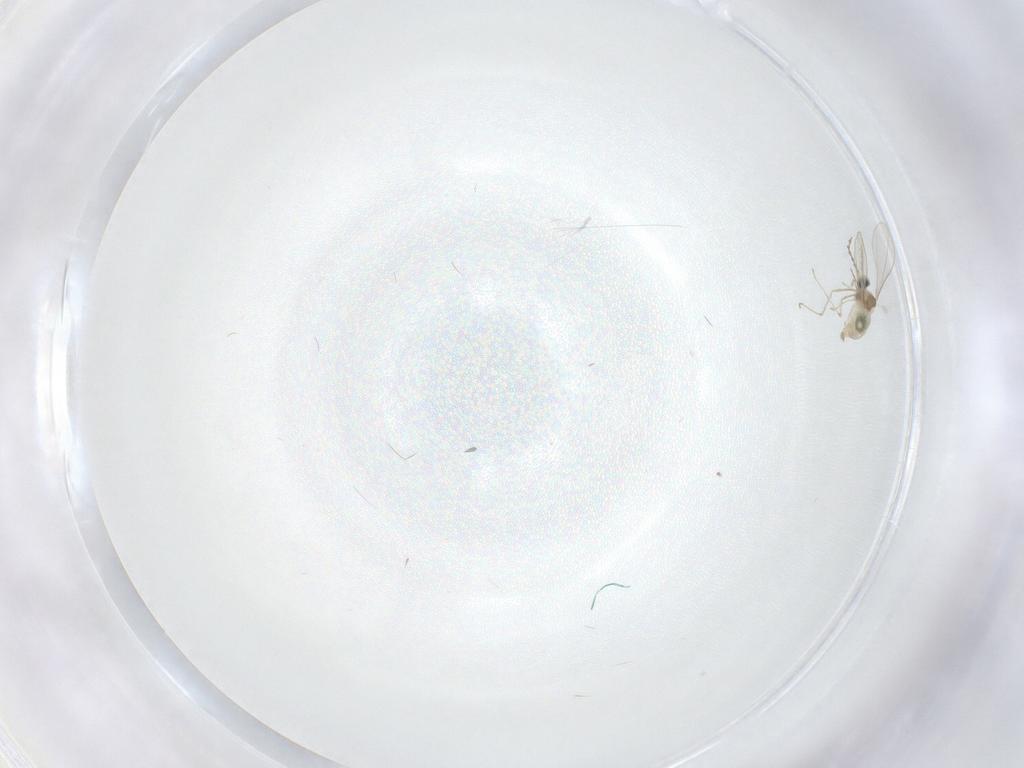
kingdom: Animalia
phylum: Arthropoda
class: Insecta
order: Diptera
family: Cecidomyiidae
